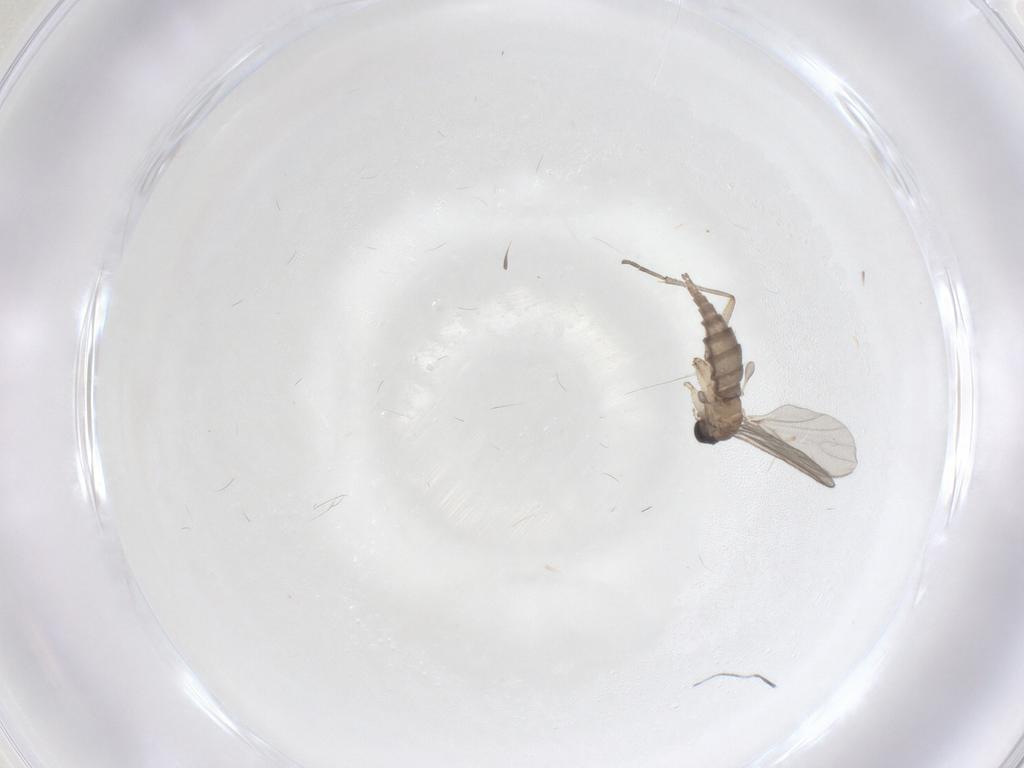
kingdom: Animalia
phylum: Arthropoda
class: Insecta
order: Diptera
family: Sciaridae
